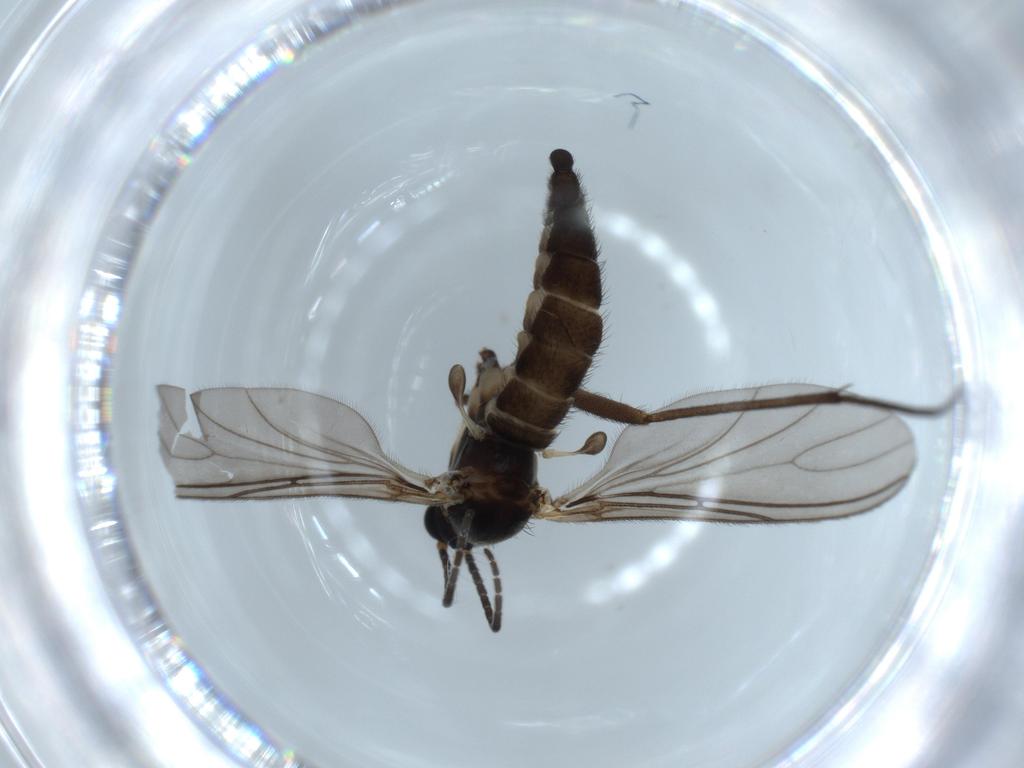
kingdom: Animalia
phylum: Arthropoda
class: Insecta
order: Diptera
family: Sciaridae
